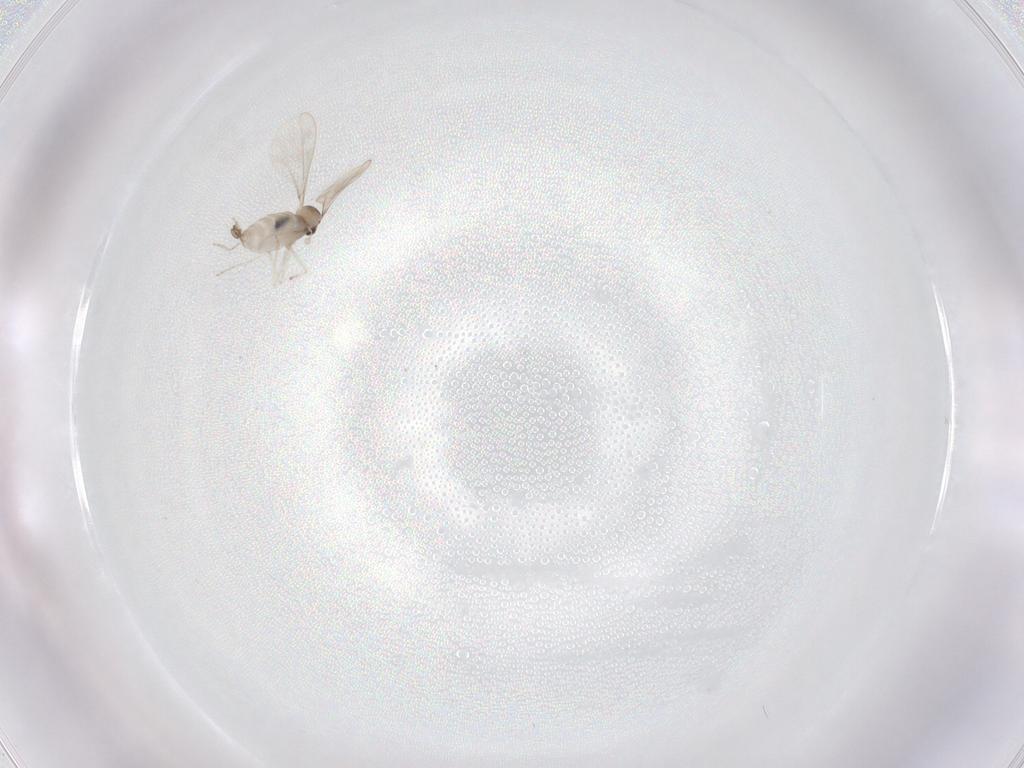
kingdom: Animalia
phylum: Arthropoda
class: Insecta
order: Diptera
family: Cecidomyiidae
